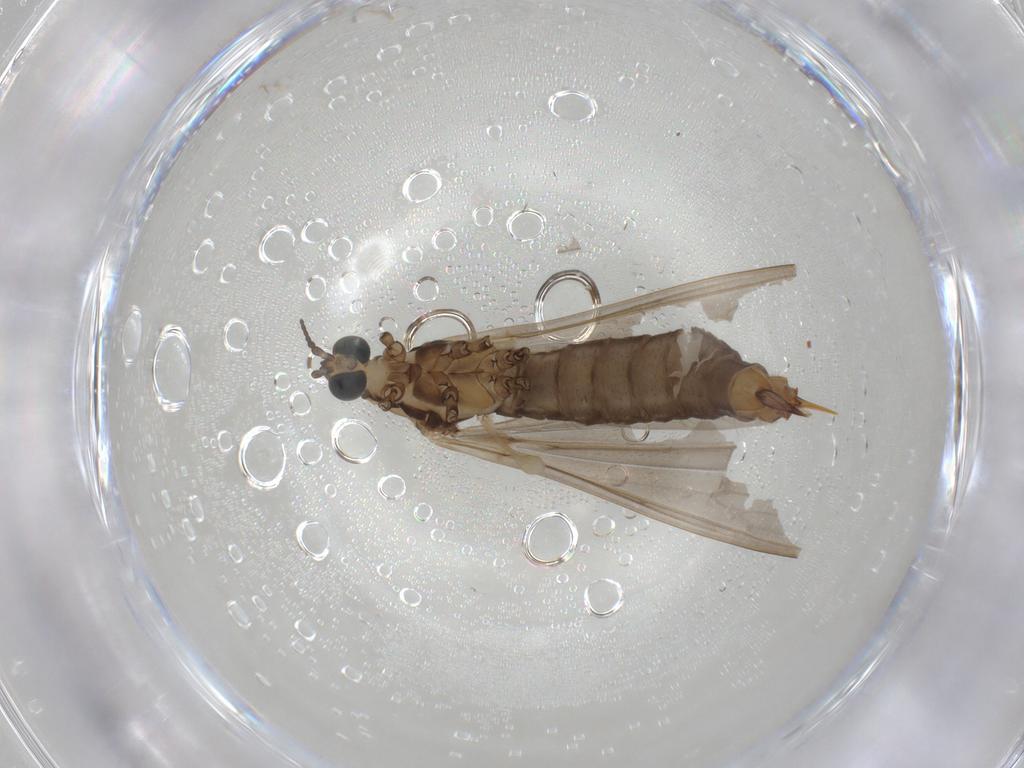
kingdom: Animalia
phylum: Arthropoda
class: Insecta
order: Diptera
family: Limoniidae
